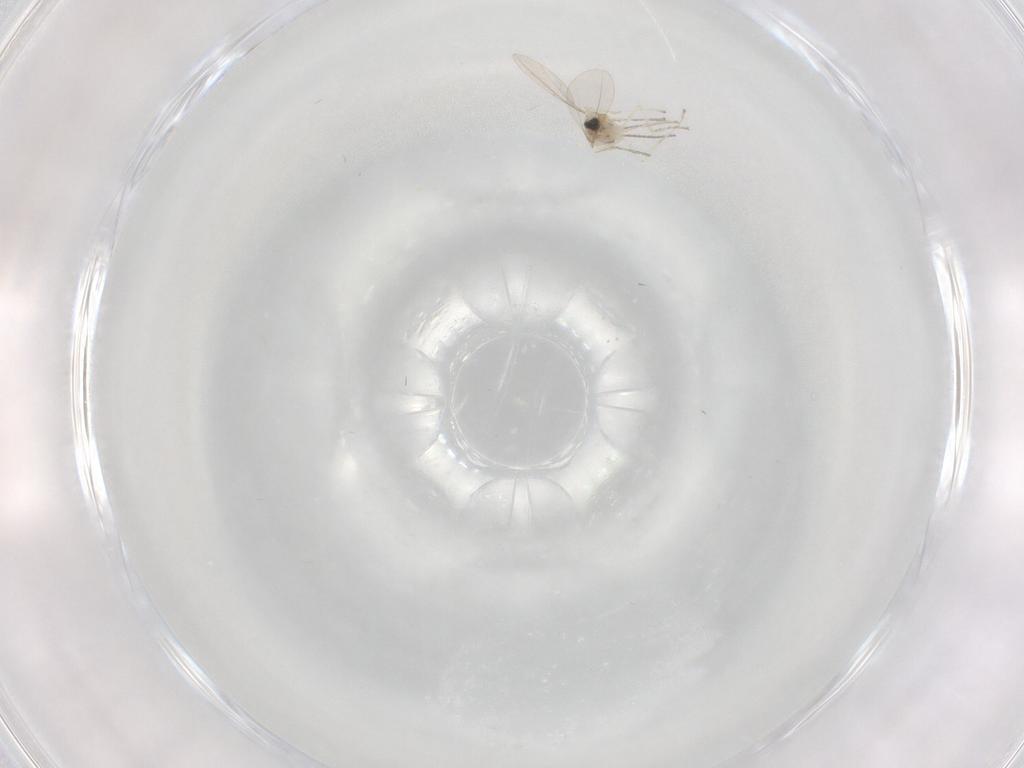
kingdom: Animalia
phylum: Arthropoda
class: Insecta
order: Diptera
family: Cecidomyiidae
